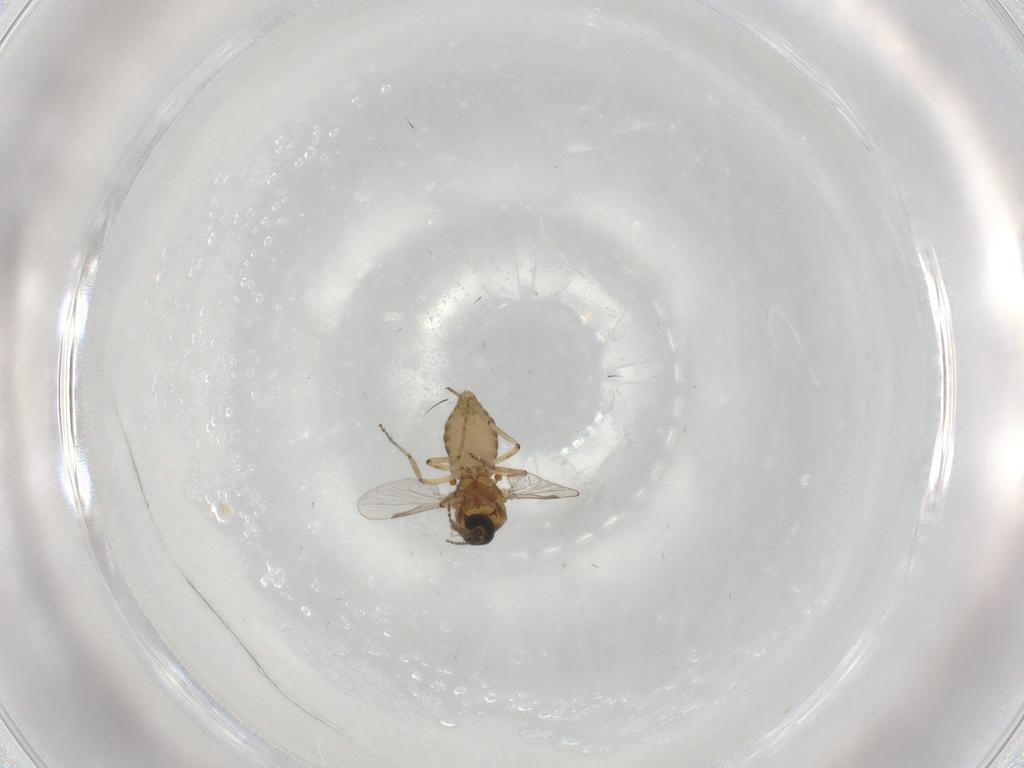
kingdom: Animalia
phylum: Arthropoda
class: Insecta
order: Diptera
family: Ceratopogonidae
